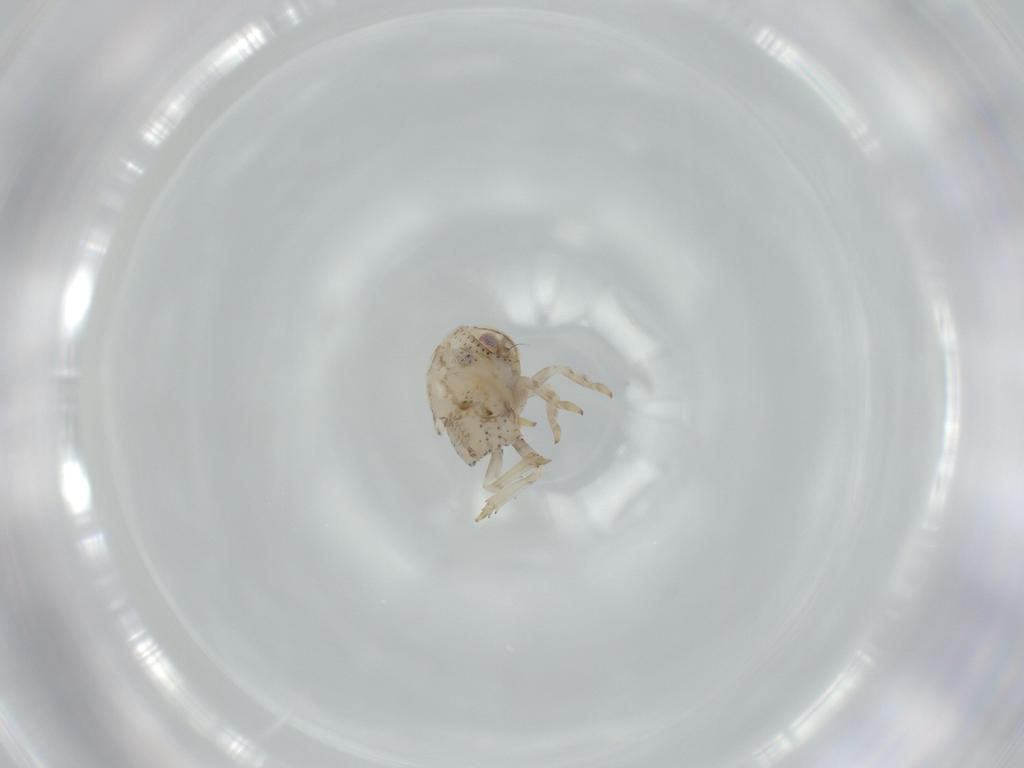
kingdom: Animalia
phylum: Arthropoda
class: Insecta
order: Hemiptera
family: Acanaloniidae
